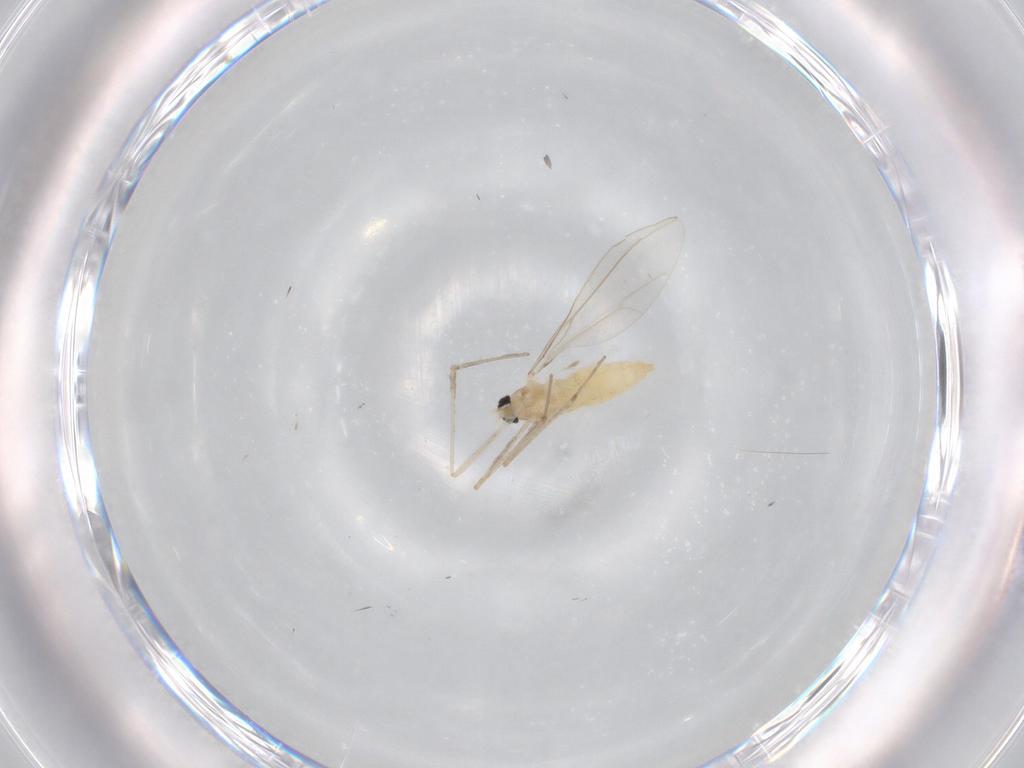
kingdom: Animalia
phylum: Arthropoda
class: Insecta
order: Diptera
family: Cecidomyiidae
